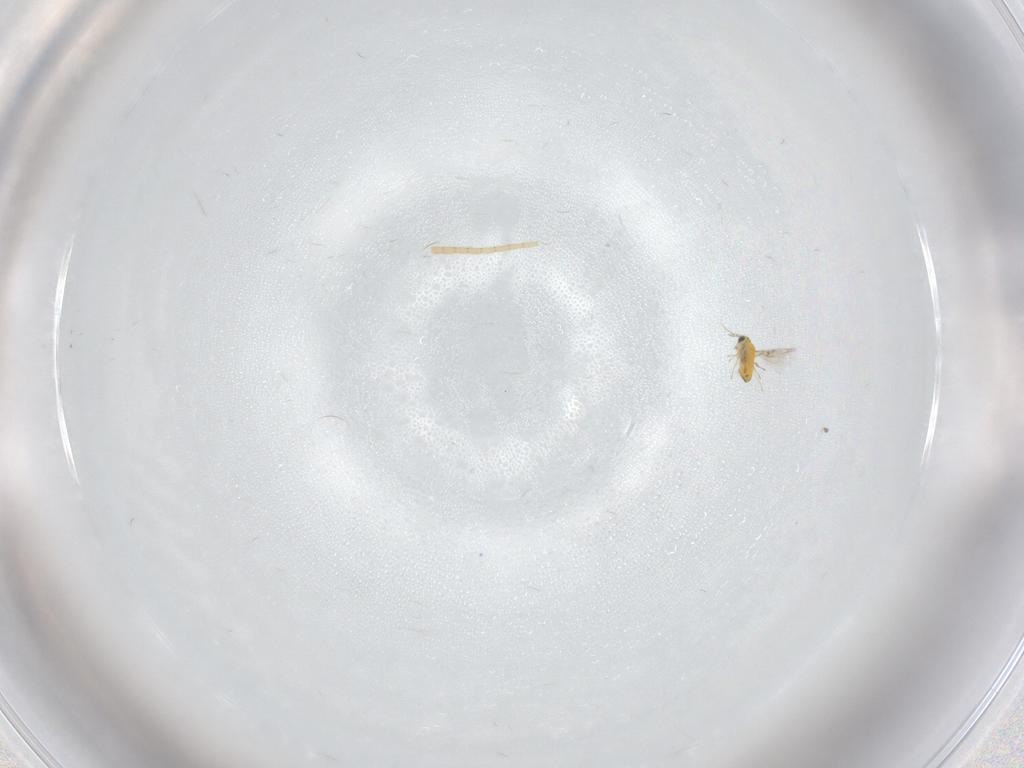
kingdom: Animalia
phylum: Arthropoda
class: Insecta
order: Hymenoptera
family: Trichogrammatidae
